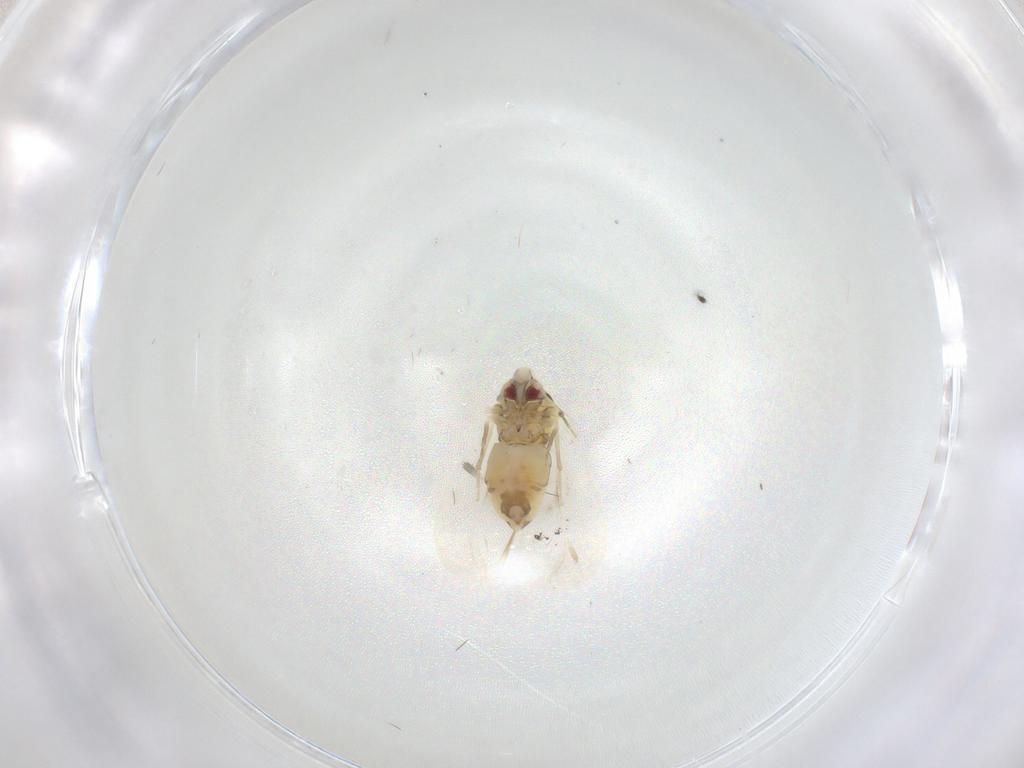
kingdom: Animalia
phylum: Arthropoda
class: Insecta
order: Hemiptera
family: Aleyrodidae
